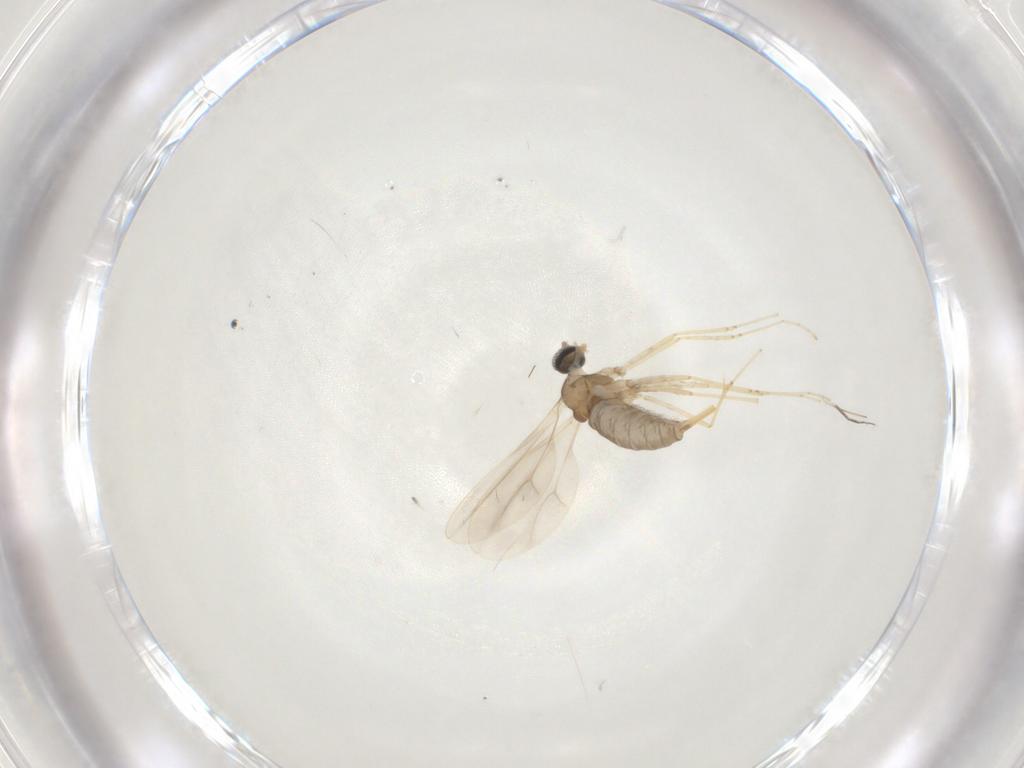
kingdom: Animalia
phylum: Arthropoda
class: Insecta
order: Diptera
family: Cecidomyiidae
